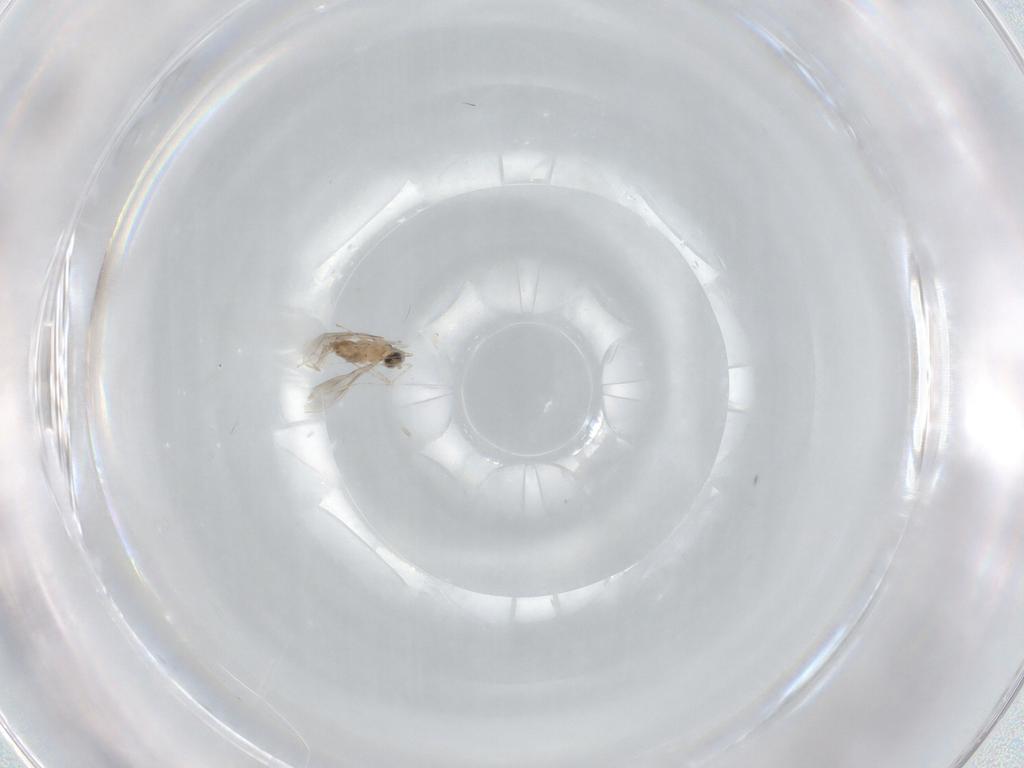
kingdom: Animalia
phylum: Arthropoda
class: Insecta
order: Diptera
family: Cecidomyiidae
